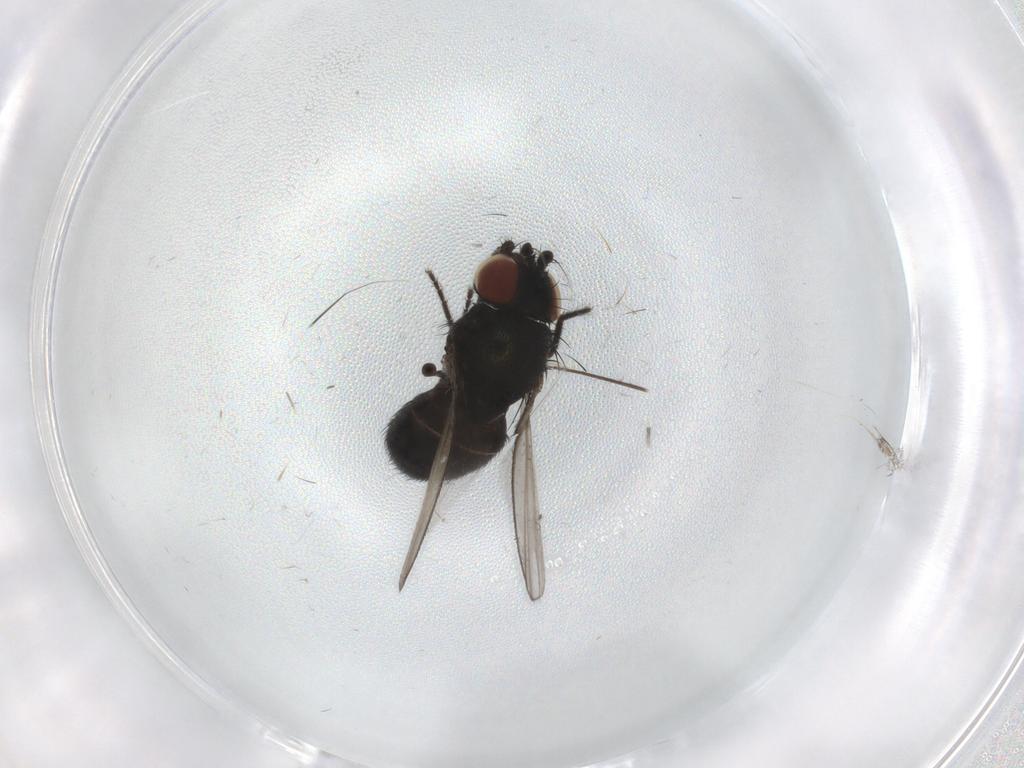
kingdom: Animalia
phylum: Arthropoda
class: Insecta
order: Diptera
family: Milichiidae
